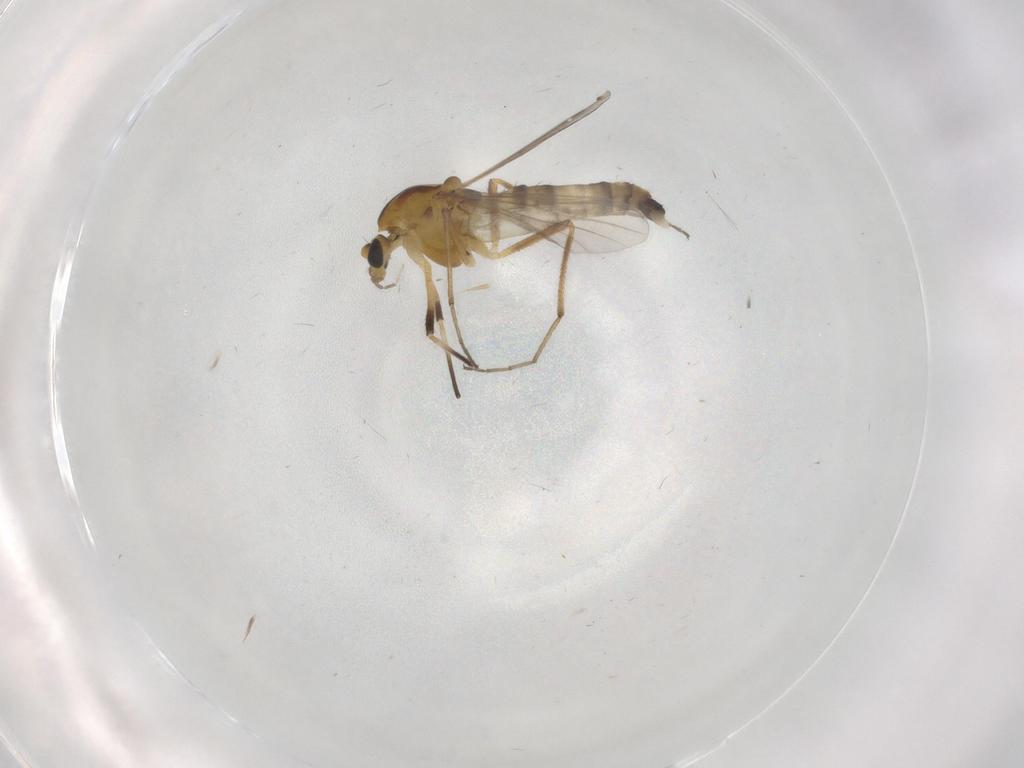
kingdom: Animalia
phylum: Arthropoda
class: Insecta
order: Diptera
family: Chironomidae
